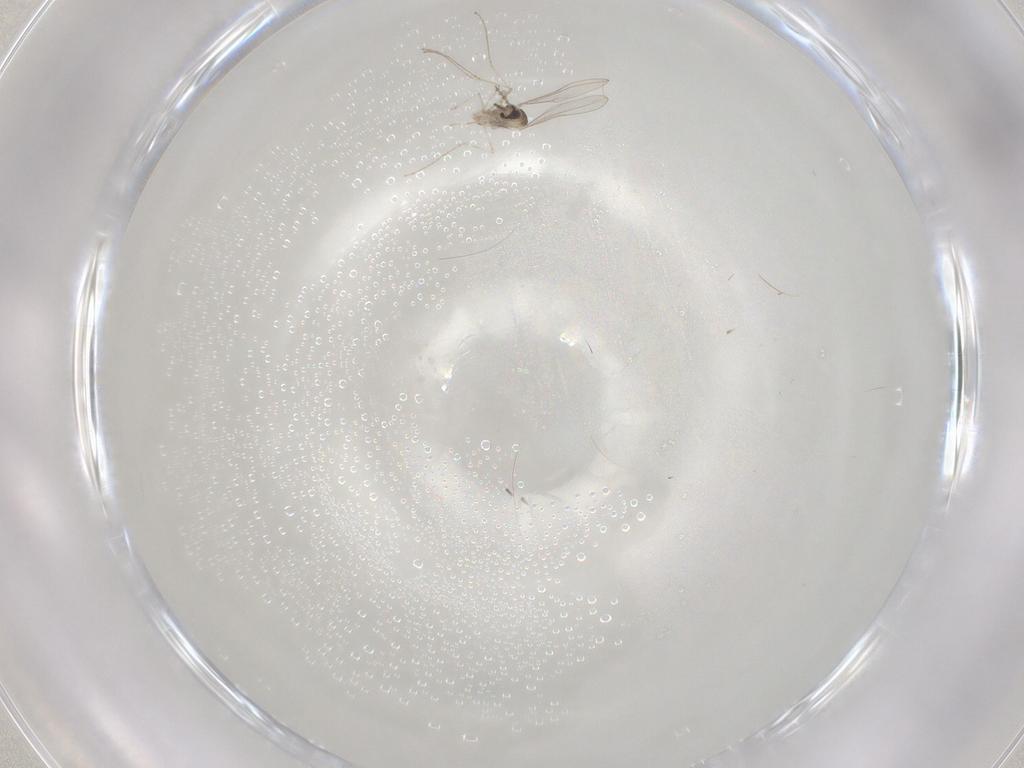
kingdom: Animalia
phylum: Arthropoda
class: Insecta
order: Diptera
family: Cecidomyiidae
